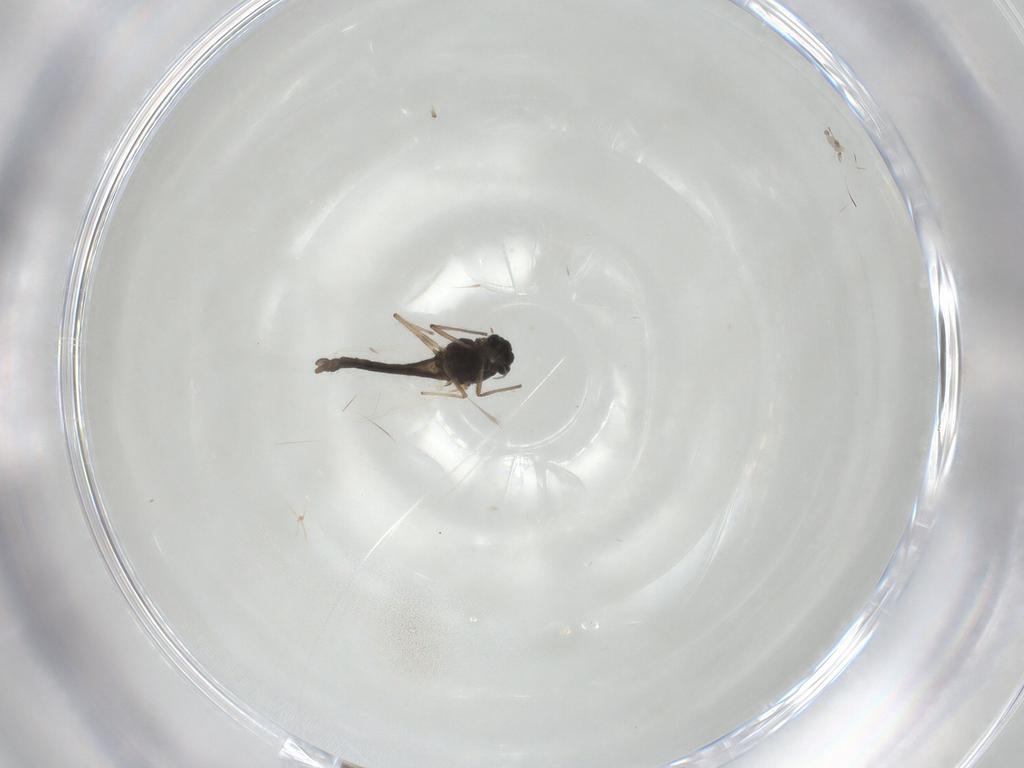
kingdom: Animalia
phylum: Arthropoda
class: Insecta
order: Diptera
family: Chironomidae
